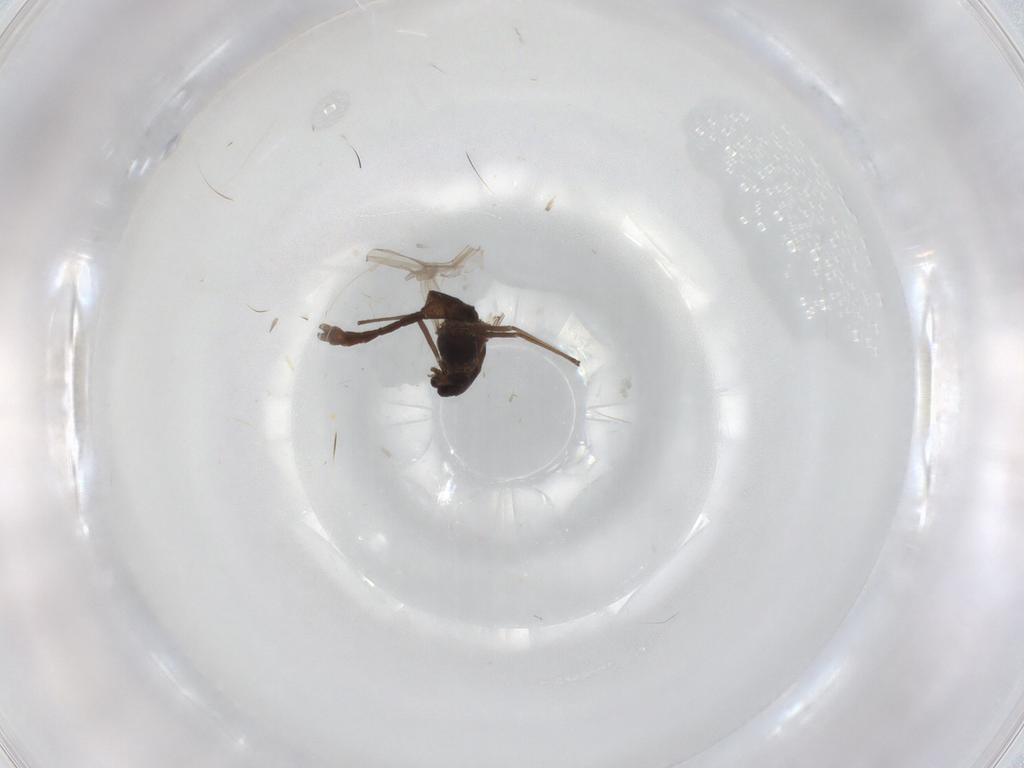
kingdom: Animalia
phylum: Arthropoda
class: Insecta
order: Diptera
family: Chironomidae
